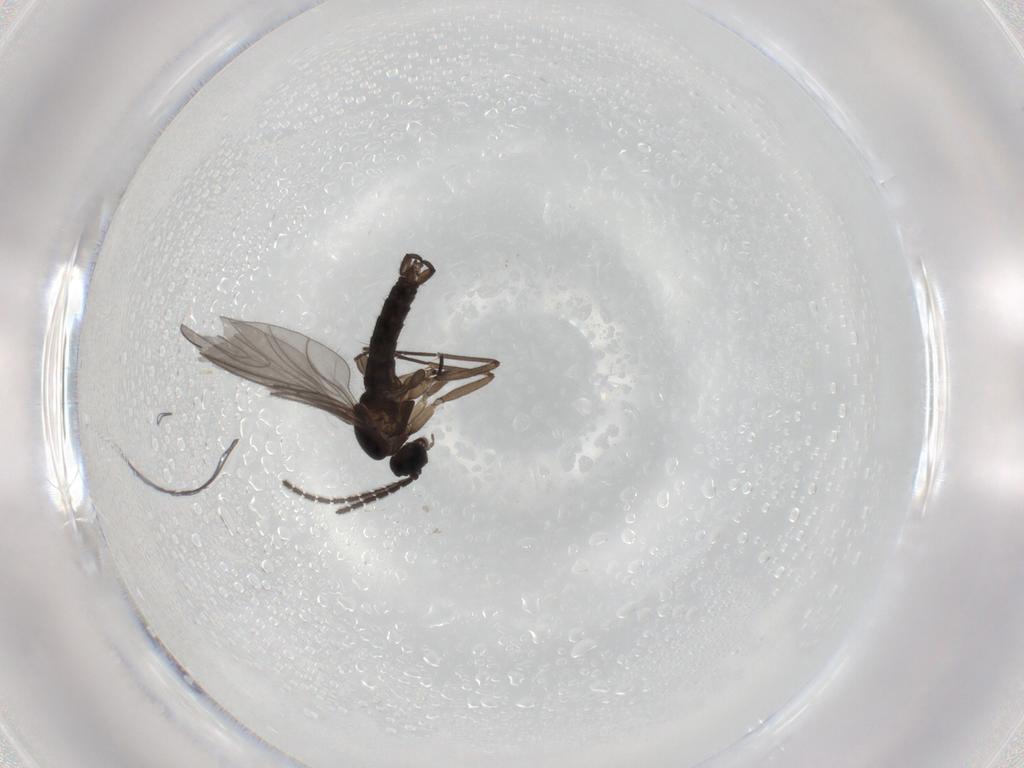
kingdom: Animalia
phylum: Arthropoda
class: Insecta
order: Diptera
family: Sciaridae
